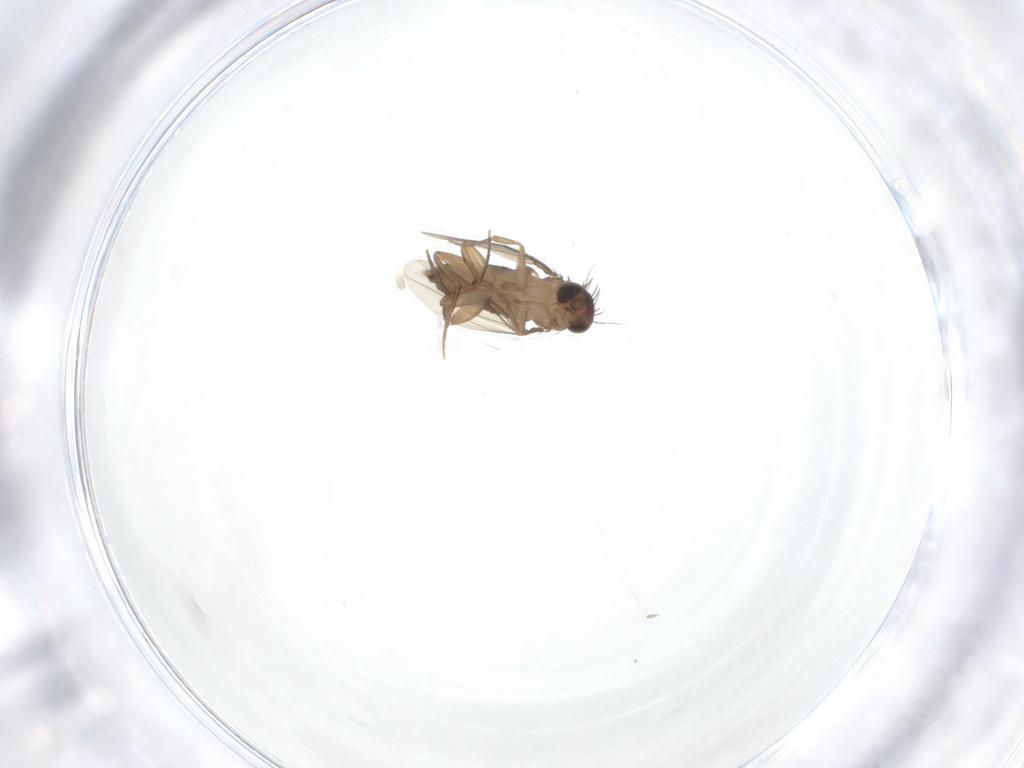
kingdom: Animalia
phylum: Arthropoda
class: Insecta
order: Diptera
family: Phoridae
